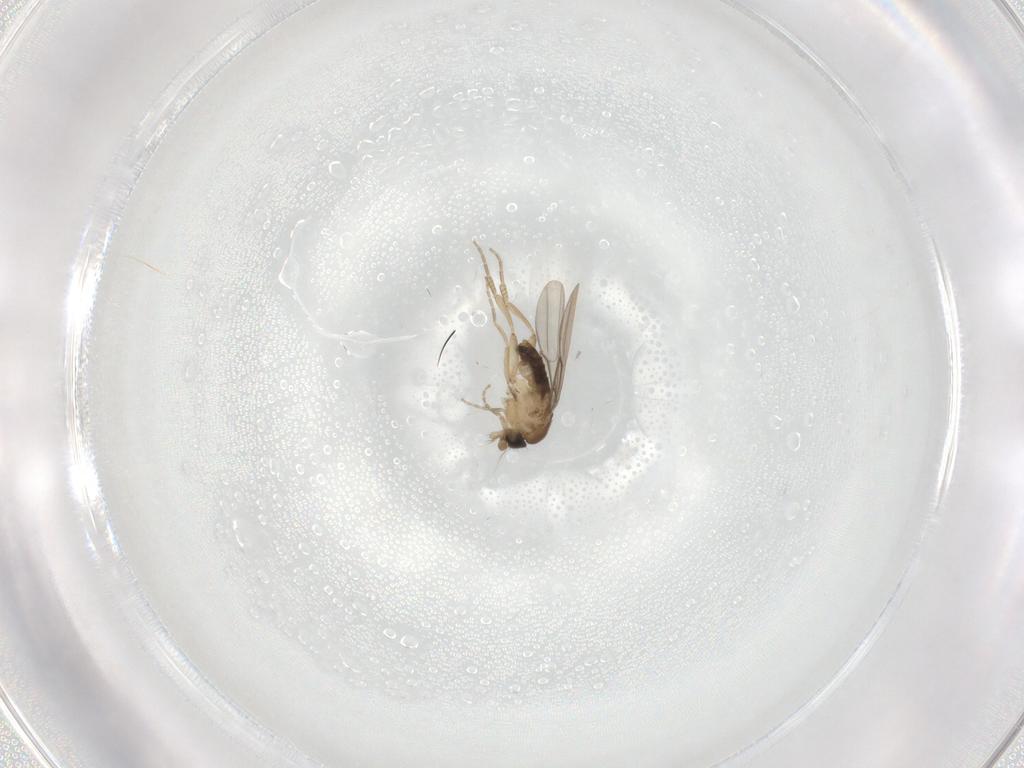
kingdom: Animalia
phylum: Arthropoda
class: Insecta
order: Diptera
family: Phoridae
